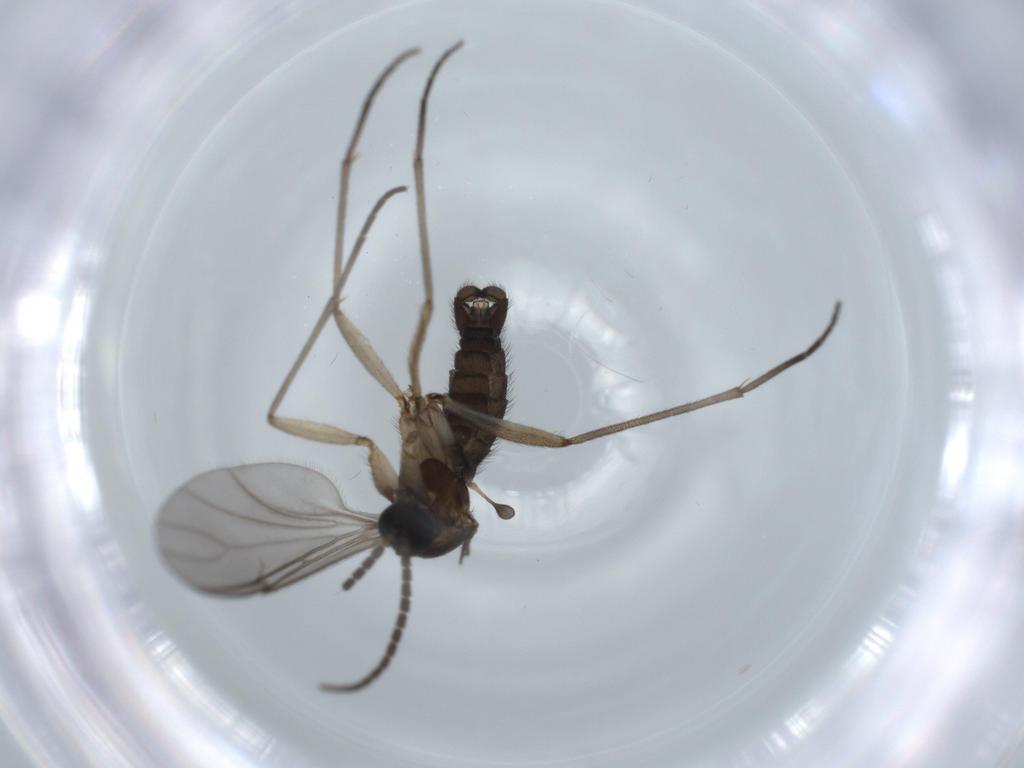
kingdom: Animalia
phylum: Arthropoda
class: Insecta
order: Diptera
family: Sciaridae
